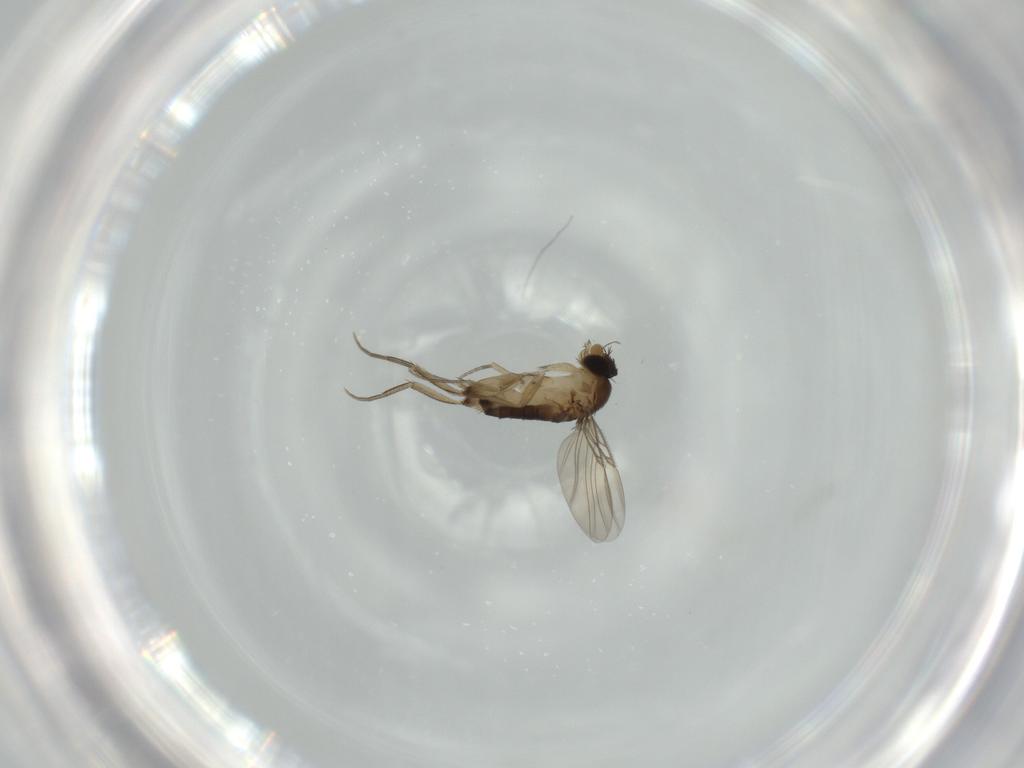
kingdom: Animalia
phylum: Arthropoda
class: Insecta
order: Diptera
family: Phoridae
